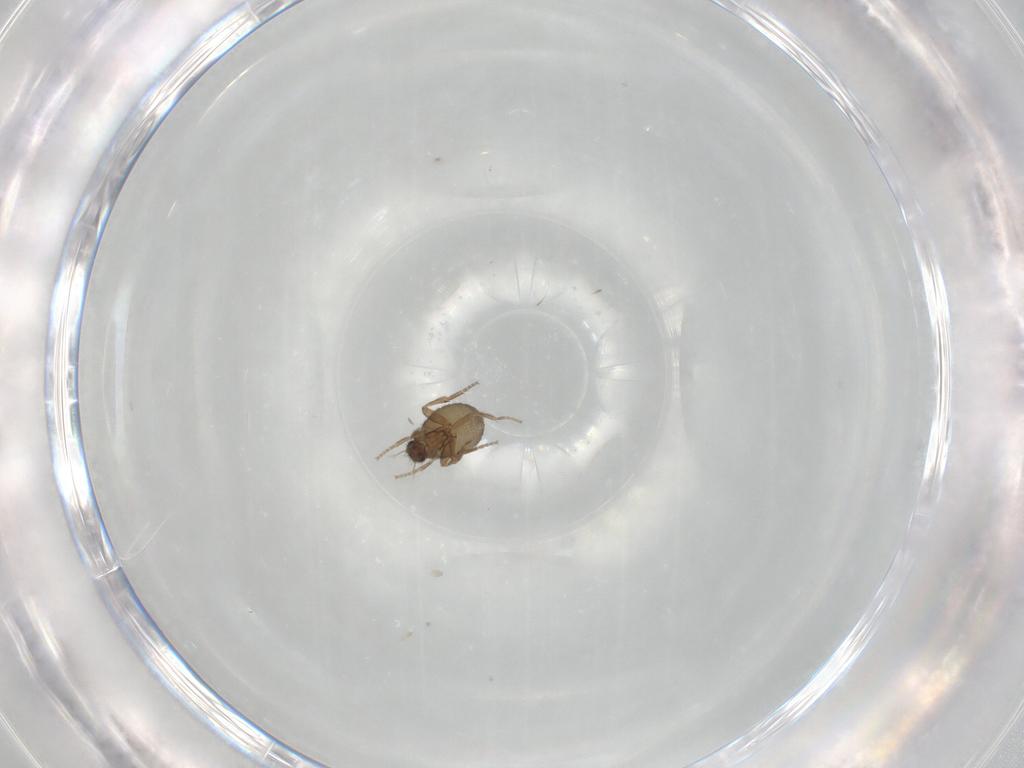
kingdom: Animalia
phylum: Arthropoda
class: Insecta
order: Diptera
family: Phoridae
